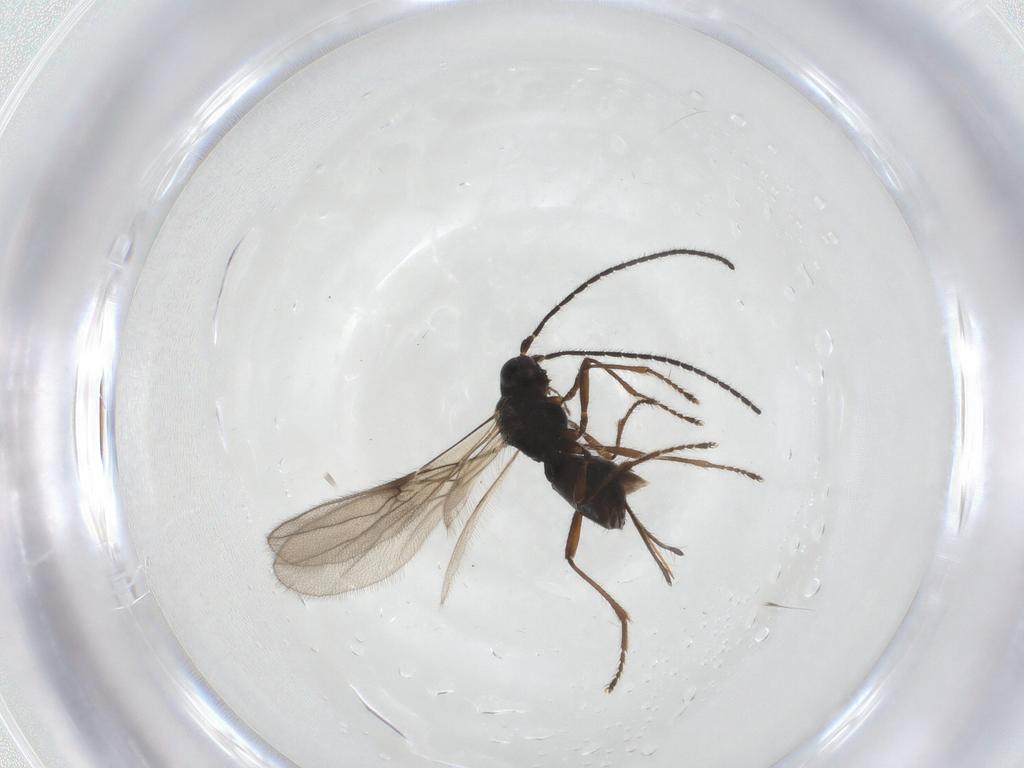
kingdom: Animalia
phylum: Arthropoda
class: Insecta
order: Hymenoptera
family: Braconidae
